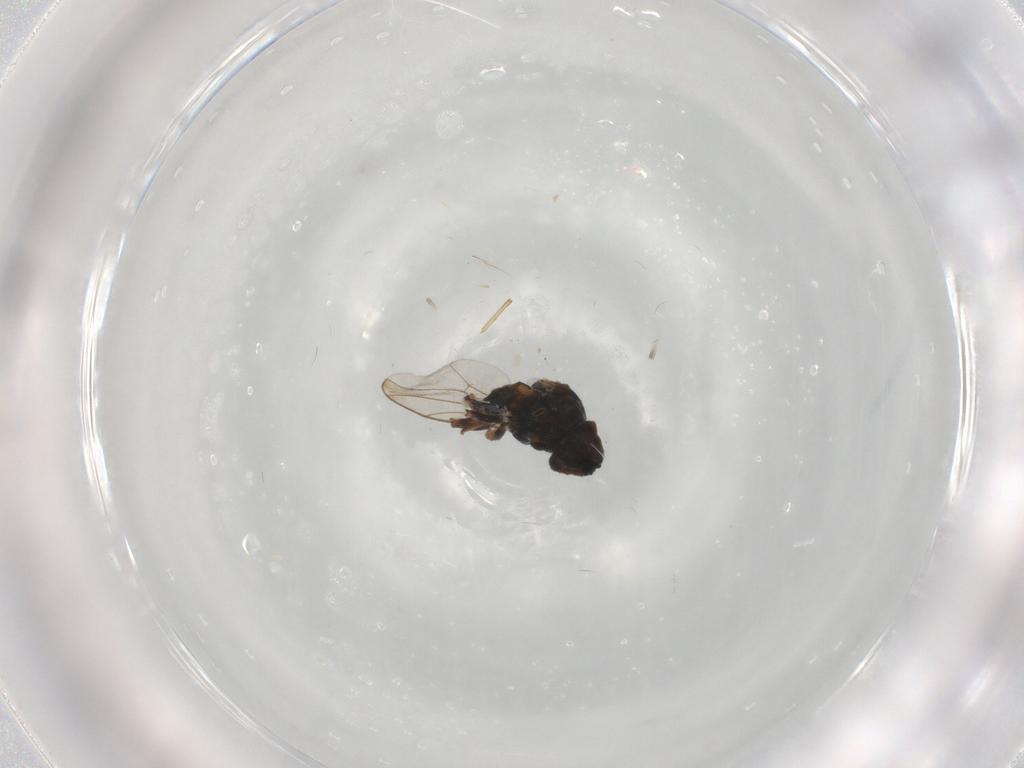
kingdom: Animalia
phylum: Arthropoda
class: Insecta
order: Diptera
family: Chloropidae
